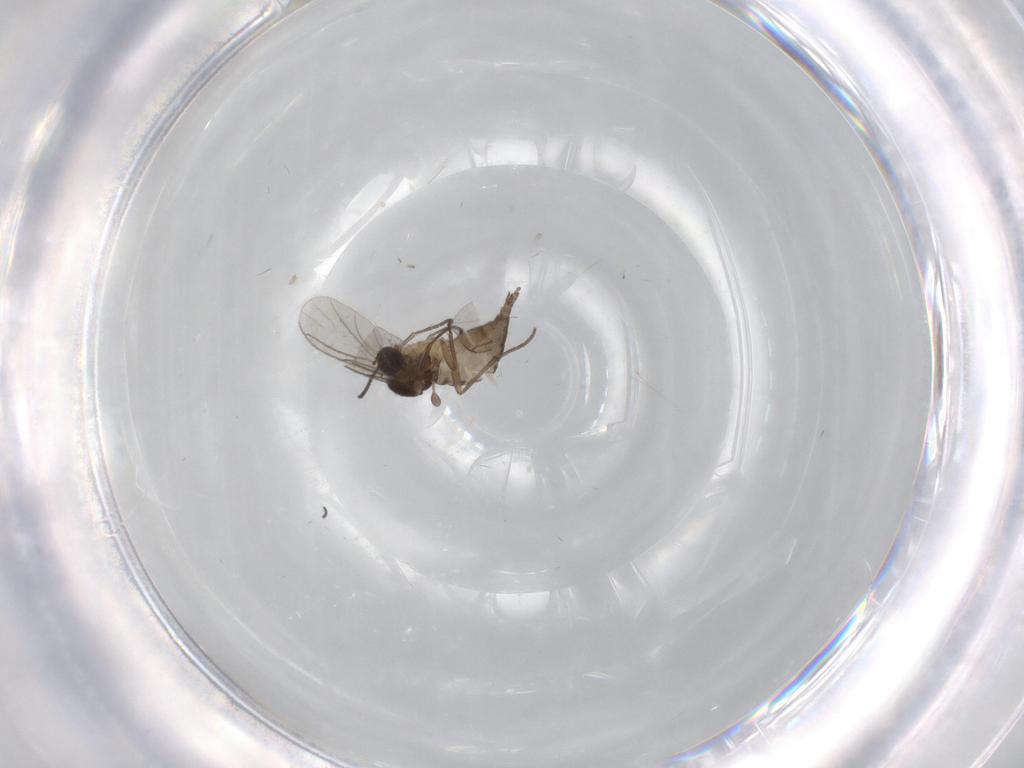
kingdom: Animalia
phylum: Arthropoda
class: Insecta
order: Diptera
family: Sciaridae
